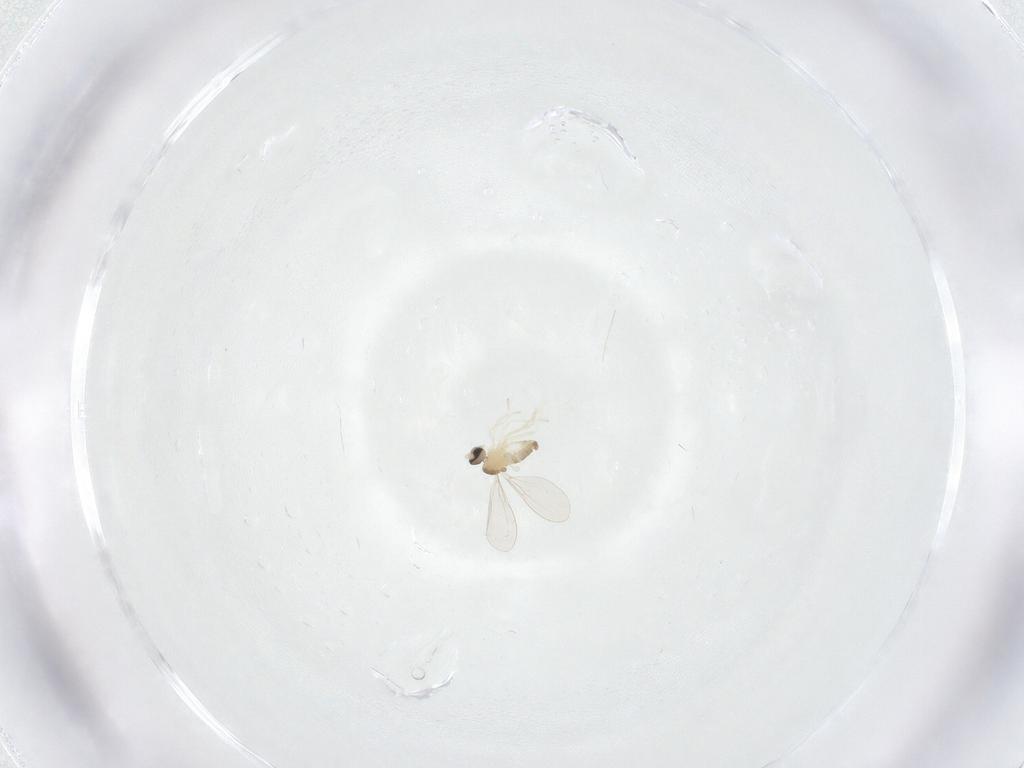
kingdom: Animalia
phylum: Arthropoda
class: Insecta
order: Diptera
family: Cecidomyiidae
